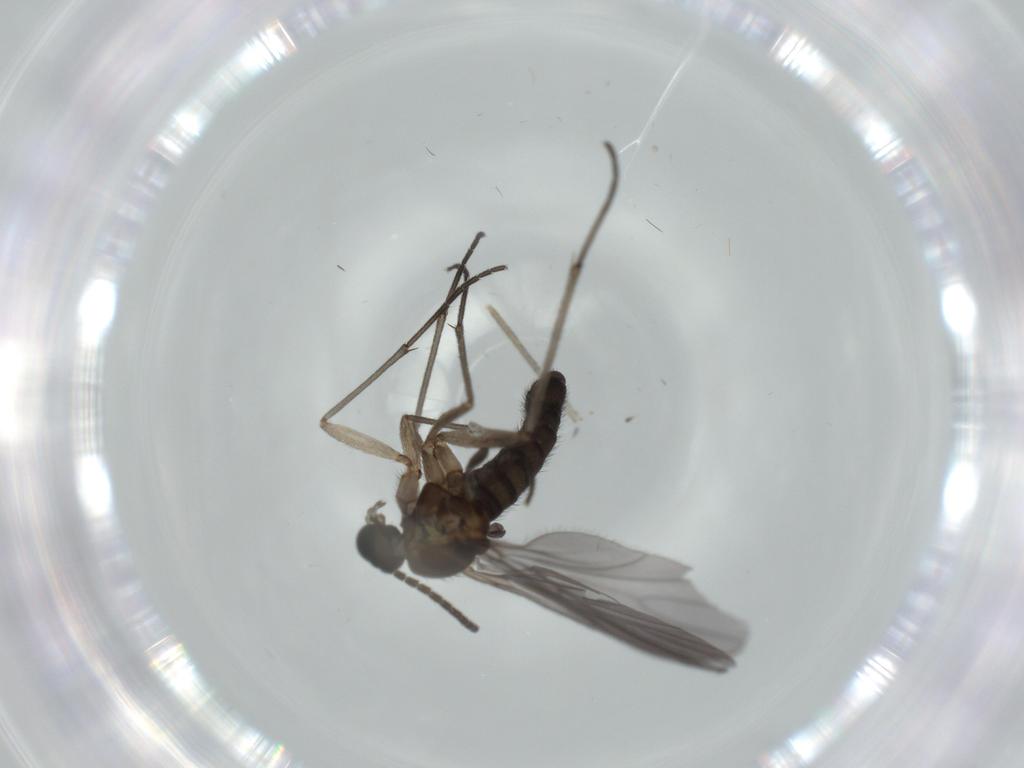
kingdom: Animalia
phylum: Arthropoda
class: Insecta
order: Diptera
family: Sciaridae
